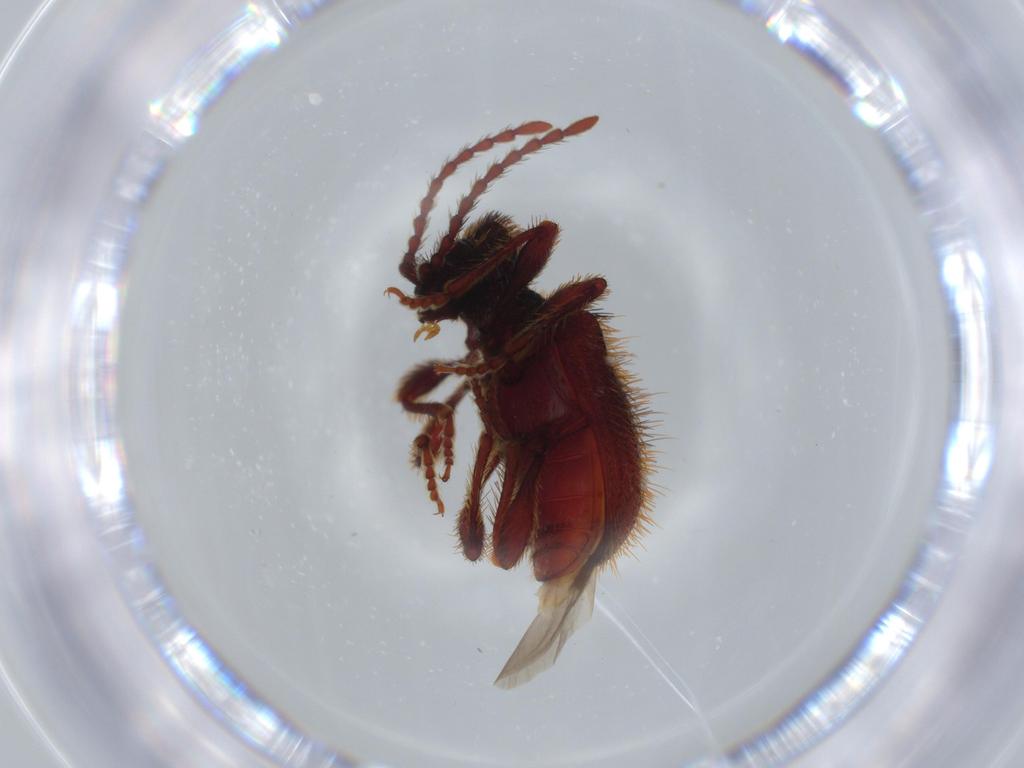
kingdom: Animalia
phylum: Arthropoda
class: Insecta
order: Coleoptera
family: Ptinidae
